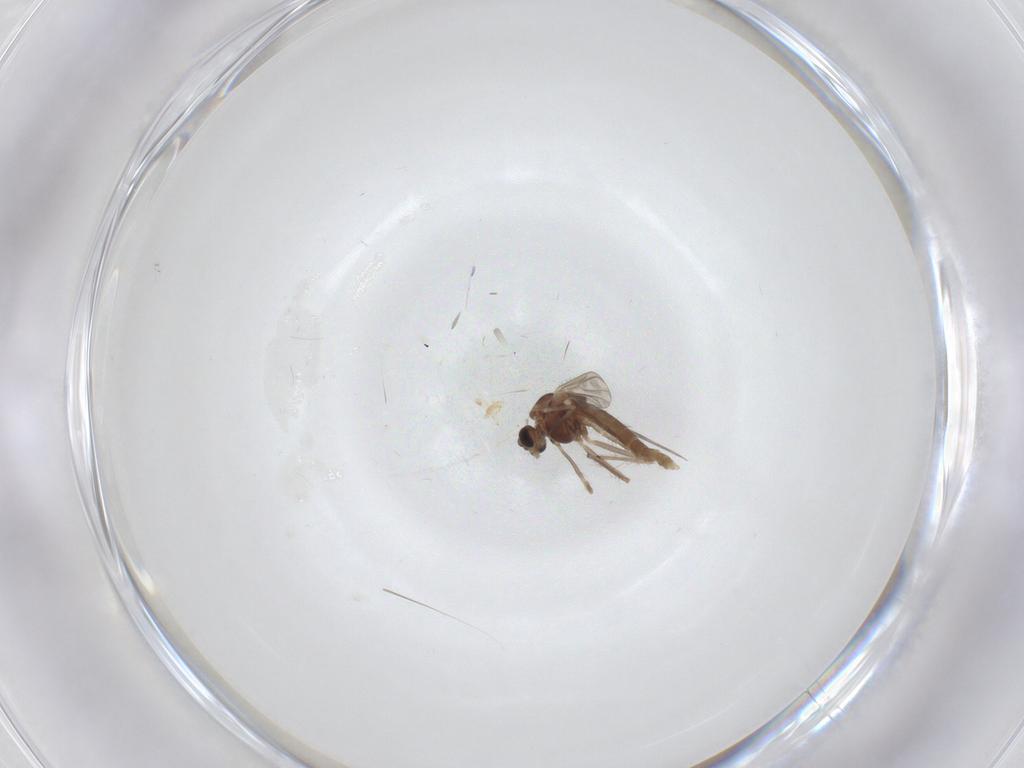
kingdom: Animalia
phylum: Arthropoda
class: Insecta
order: Diptera
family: Chironomidae
